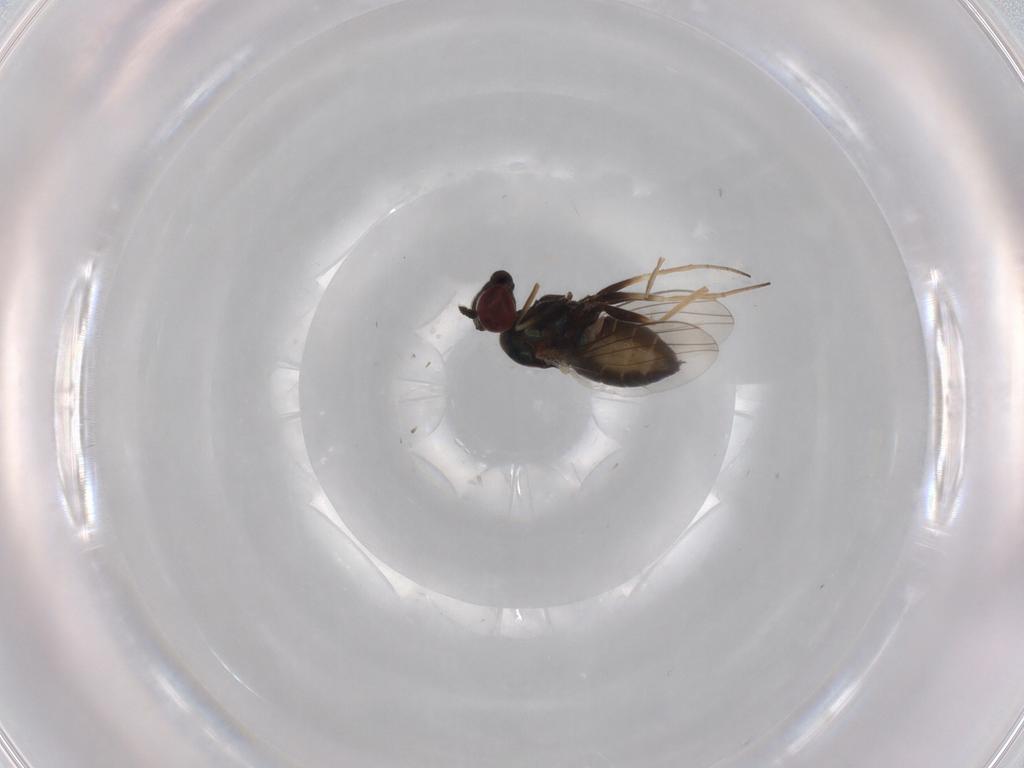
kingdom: Animalia
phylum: Arthropoda
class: Insecta
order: Diptera
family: Dolichopodidae
